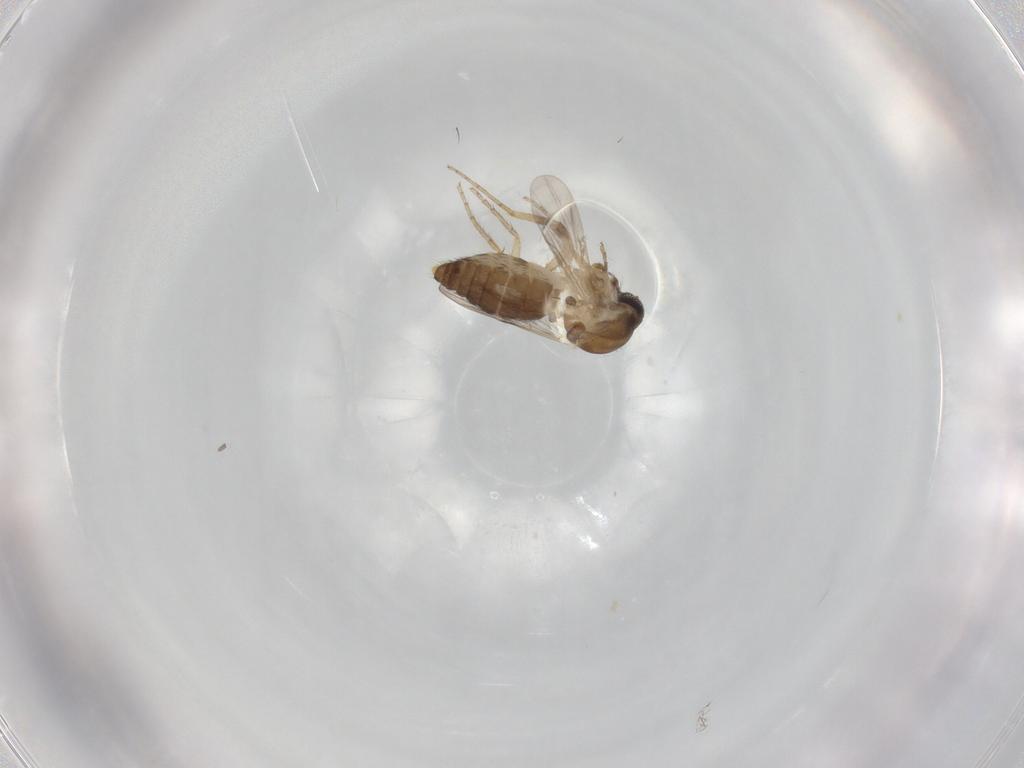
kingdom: Animalia
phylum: Arthropoda
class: Insecta
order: Diptera
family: Ceratopogonidae
